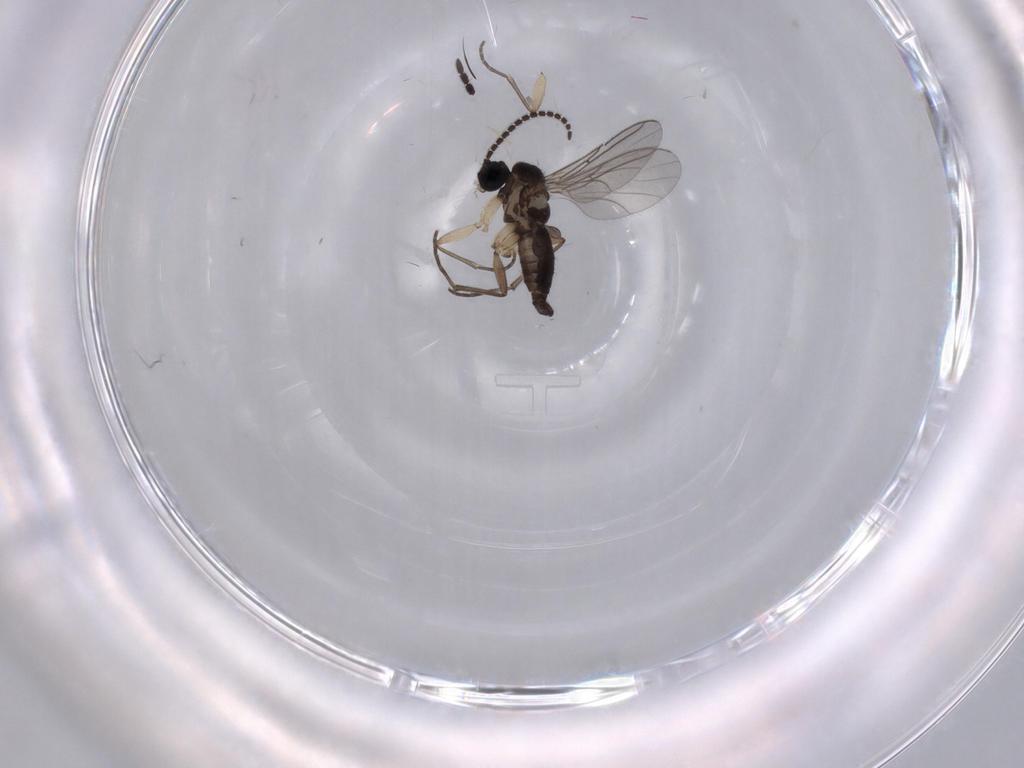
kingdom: Animalia
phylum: Arthropoda
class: Insecta
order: Diptera
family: Sciaridae
